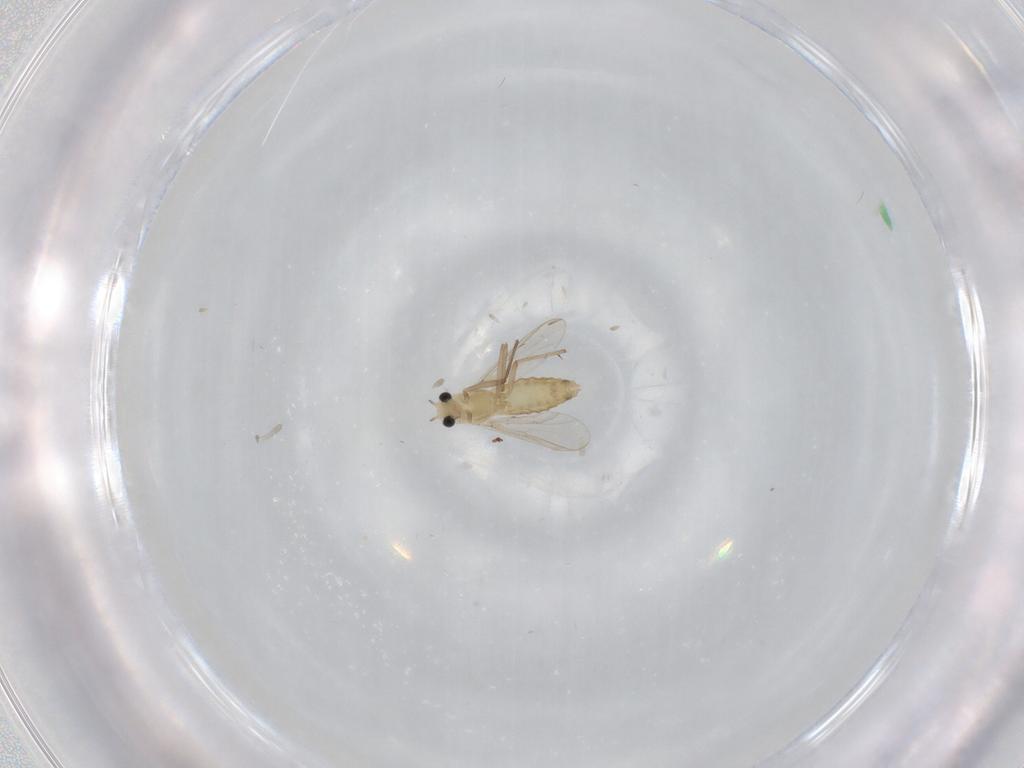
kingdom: Animalia
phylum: Arthropoda
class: Insecta
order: Diptera
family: Chironomidae
